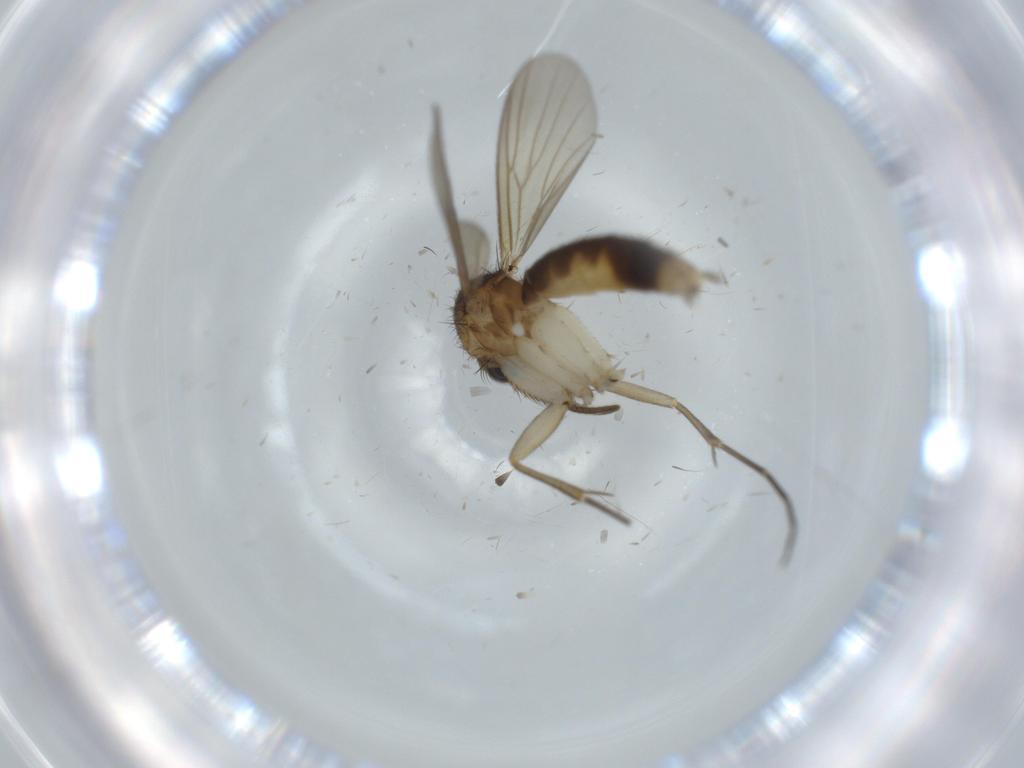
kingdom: Animalia
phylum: Arthropoda
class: Insecta
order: Diptera
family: Mycetophilidae
